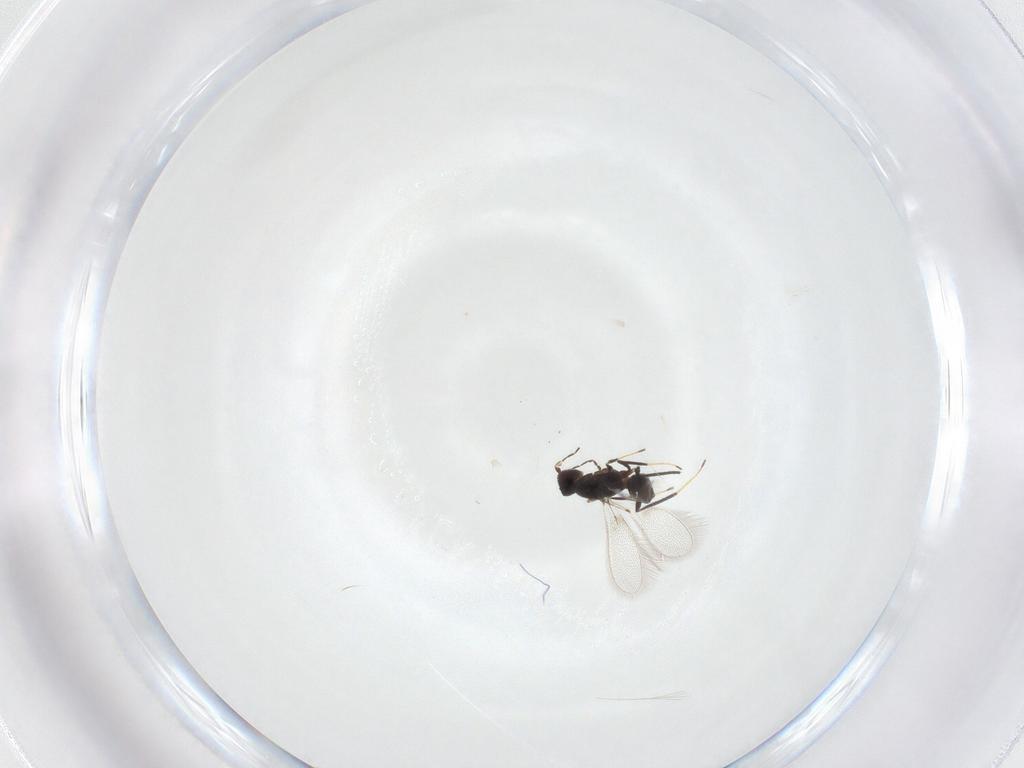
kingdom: Animalia
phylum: Arthropoda
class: Insecta
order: Hymenoptera
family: Mymaridae
